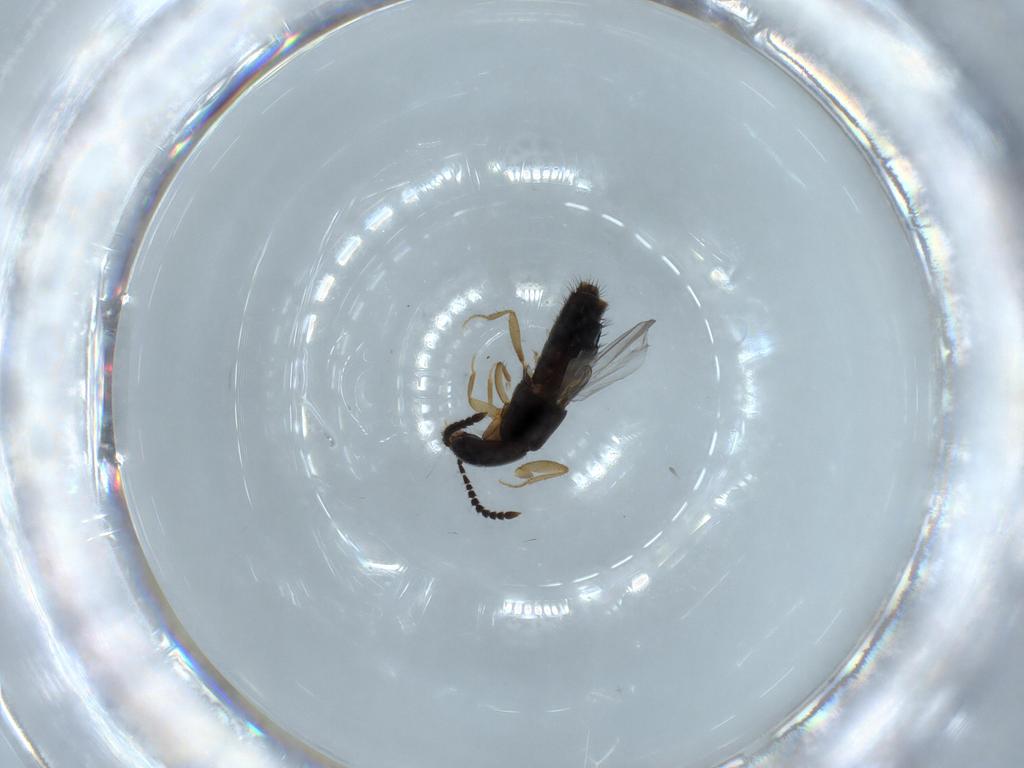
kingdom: Animalia
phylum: Arthropoda
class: Insecta
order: Coleoptera
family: Staphylinidae
